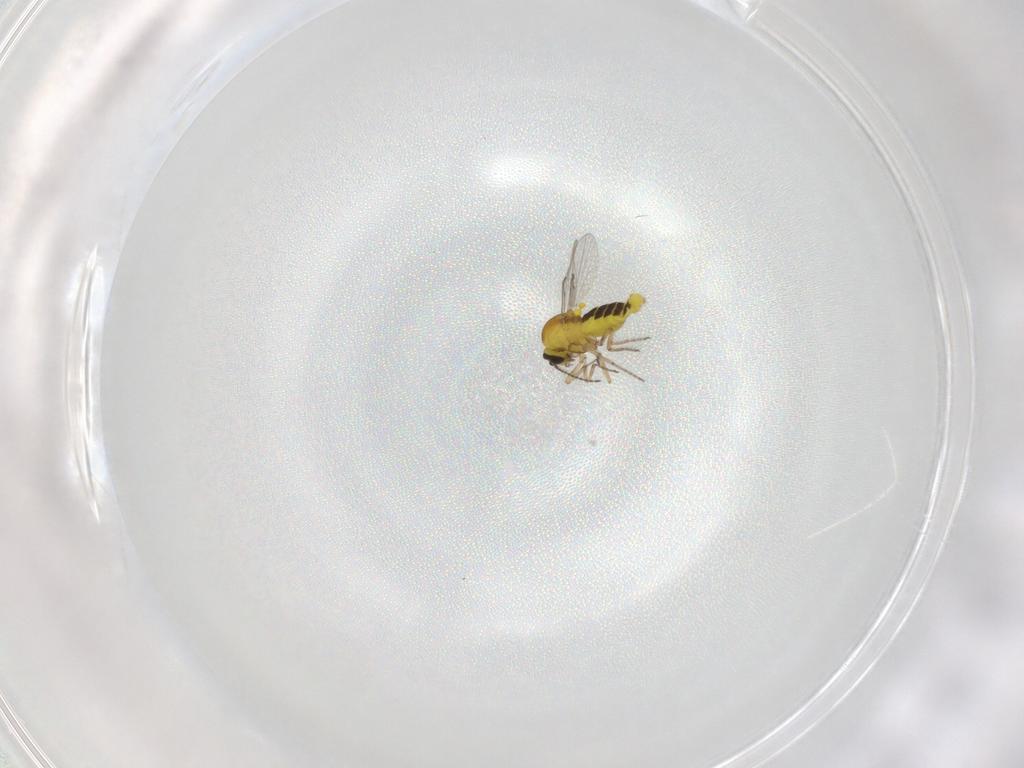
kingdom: Animalia
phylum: Arthropoda
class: Insecta
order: Diptera
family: Ceratopogonidae
